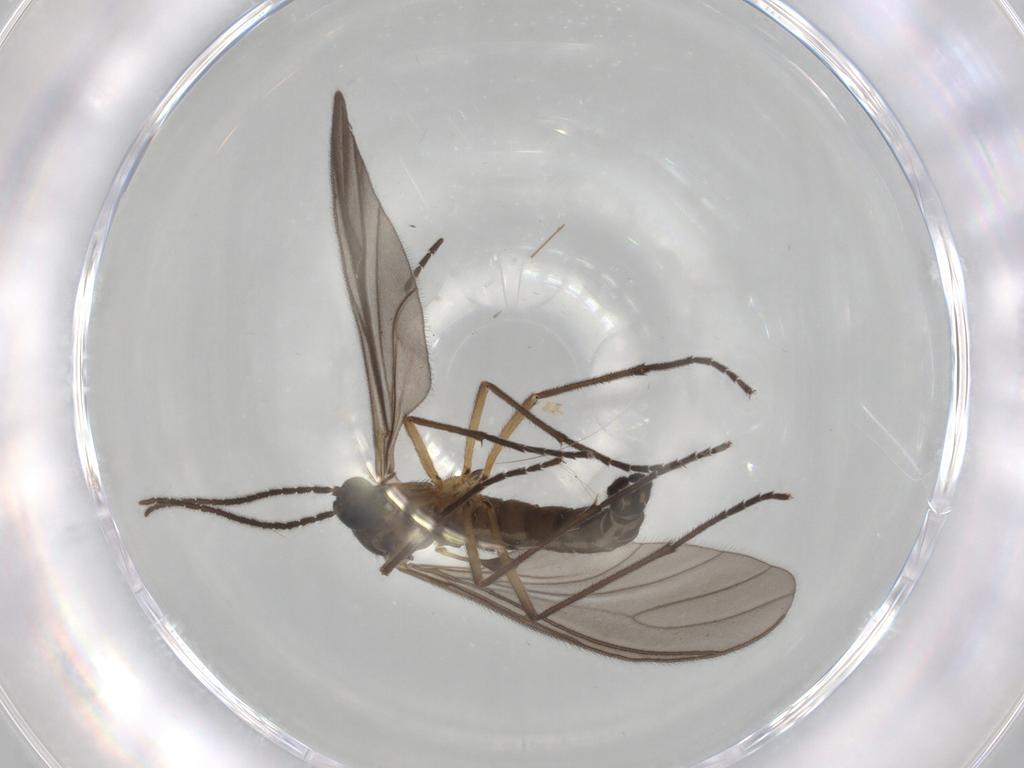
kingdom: Animalia
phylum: Arthropoda
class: Insecta
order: Diptera
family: Sciaridae
